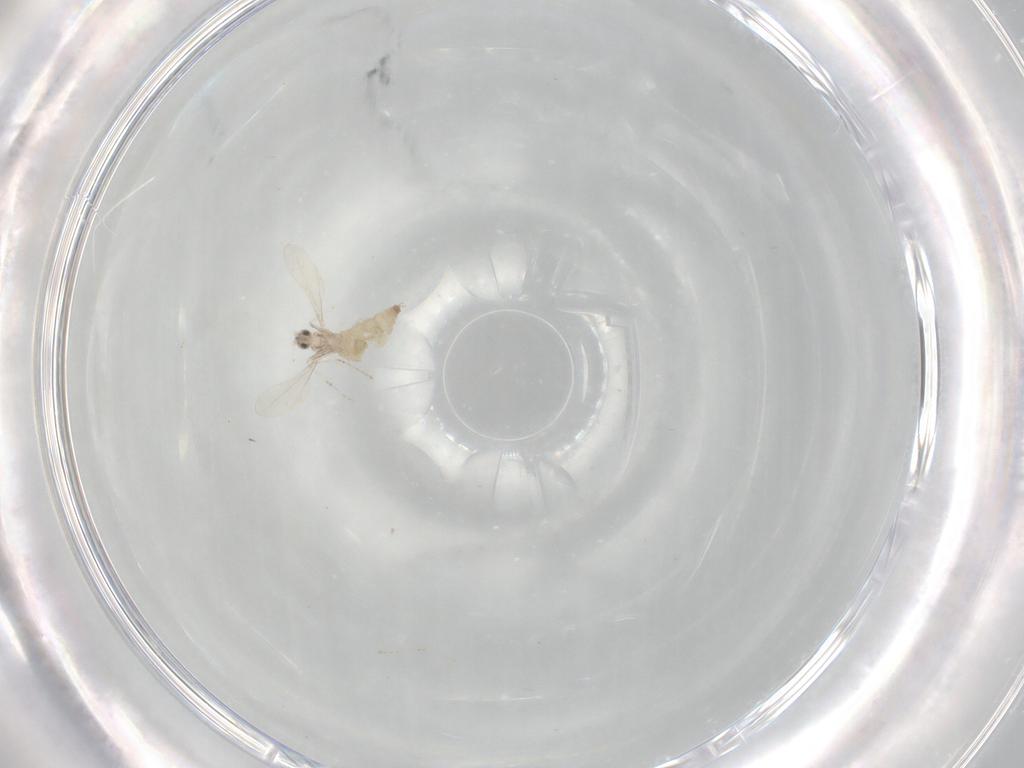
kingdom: Animalia
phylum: Arthropoda
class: Insecta
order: Diptera
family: Cecidomyiidae
